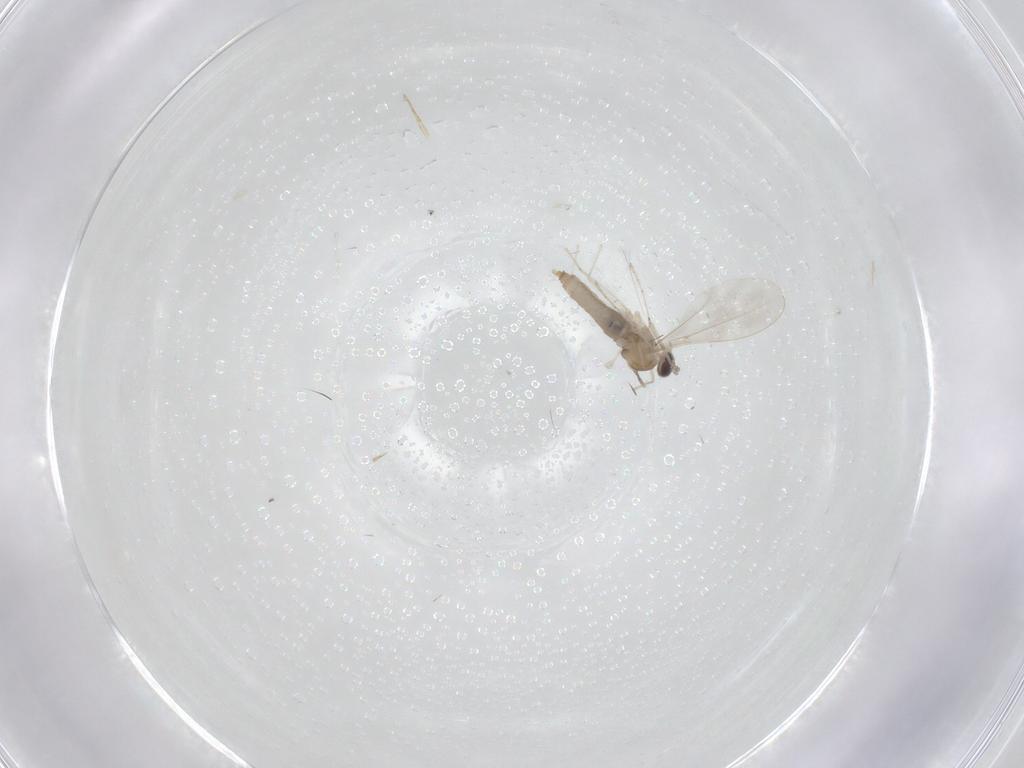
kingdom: Animalia
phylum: Arthropoda
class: Insecta
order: Diptera
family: Cecidomyiidae
